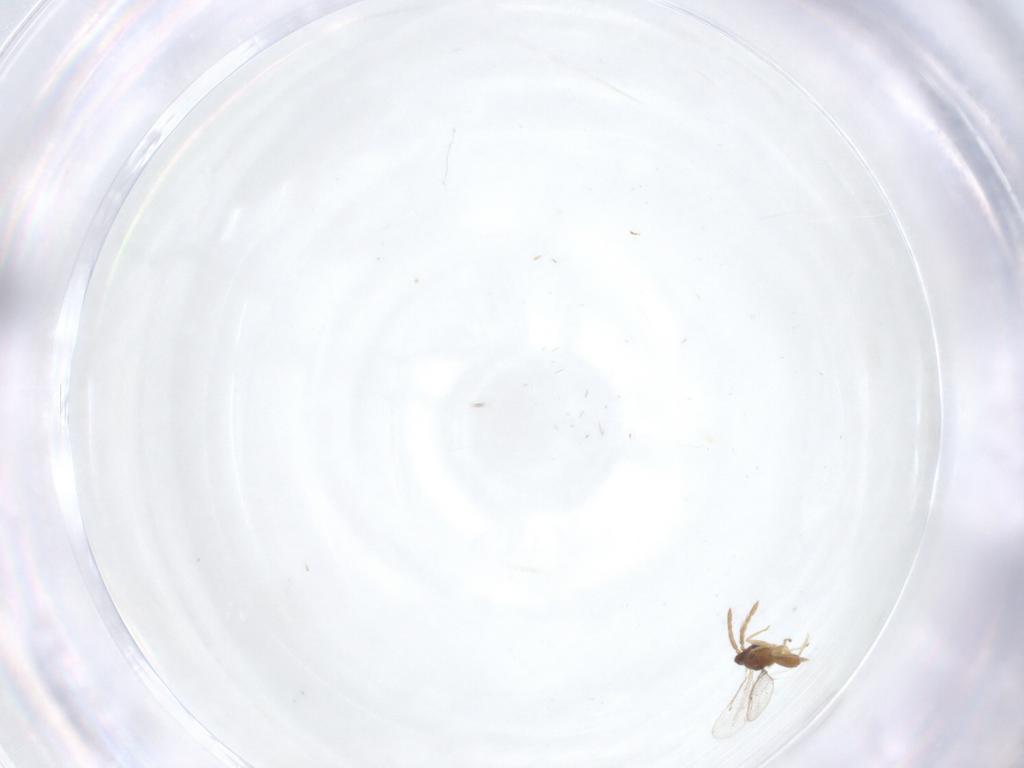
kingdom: Animalia
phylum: Arthropoda
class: Insecta
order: Hymenoptera
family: Eulophidae
